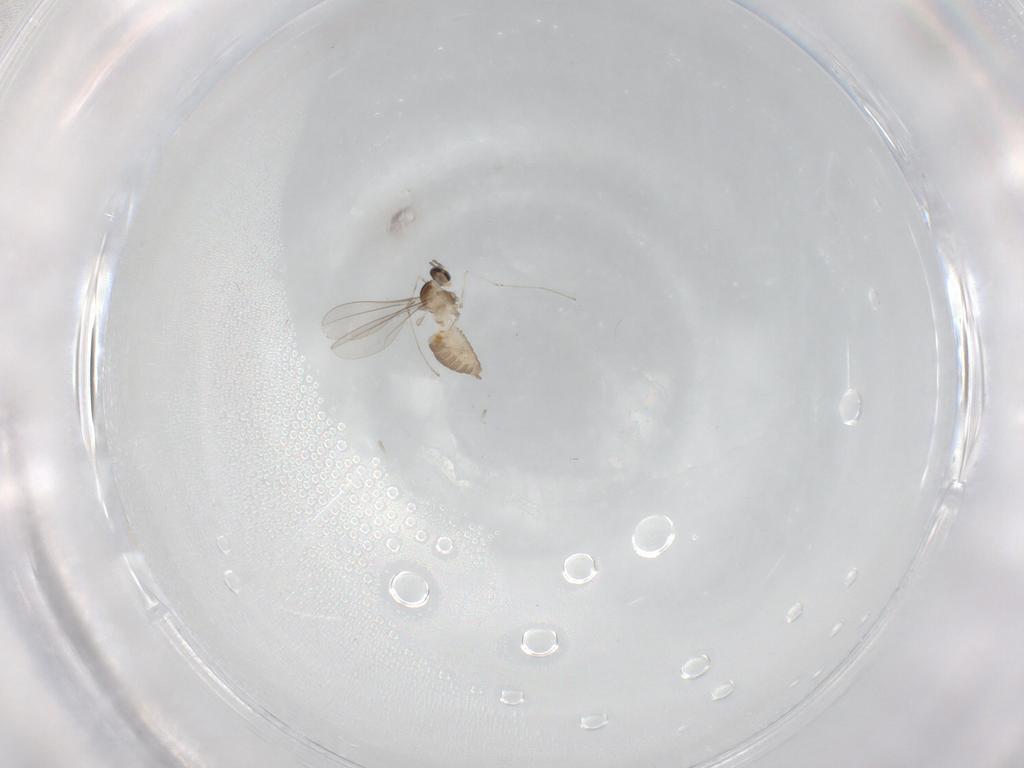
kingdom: Animalia
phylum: Arthropoda
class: Insecta
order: Diptera
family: Cecidomyiidae
